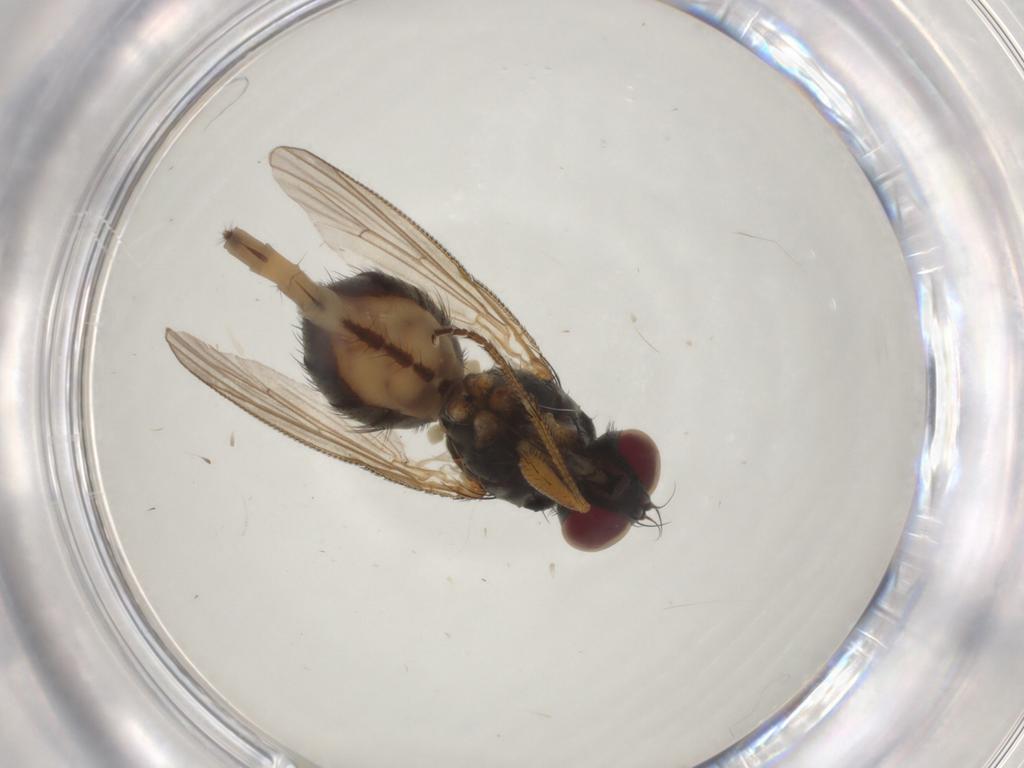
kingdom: Animalia
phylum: Arthropoda
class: Insecta
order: Diptera
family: Muscidae
